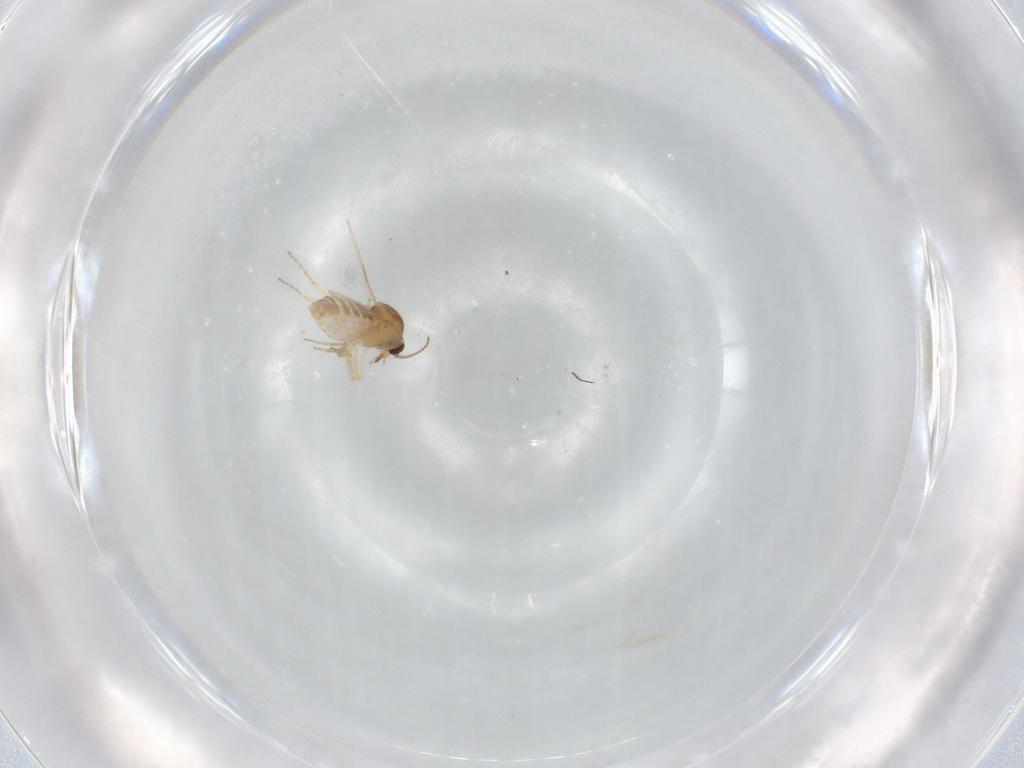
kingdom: Animalia
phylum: Arthropoda
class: Insecta
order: Diptera
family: Ceratopogonidae
